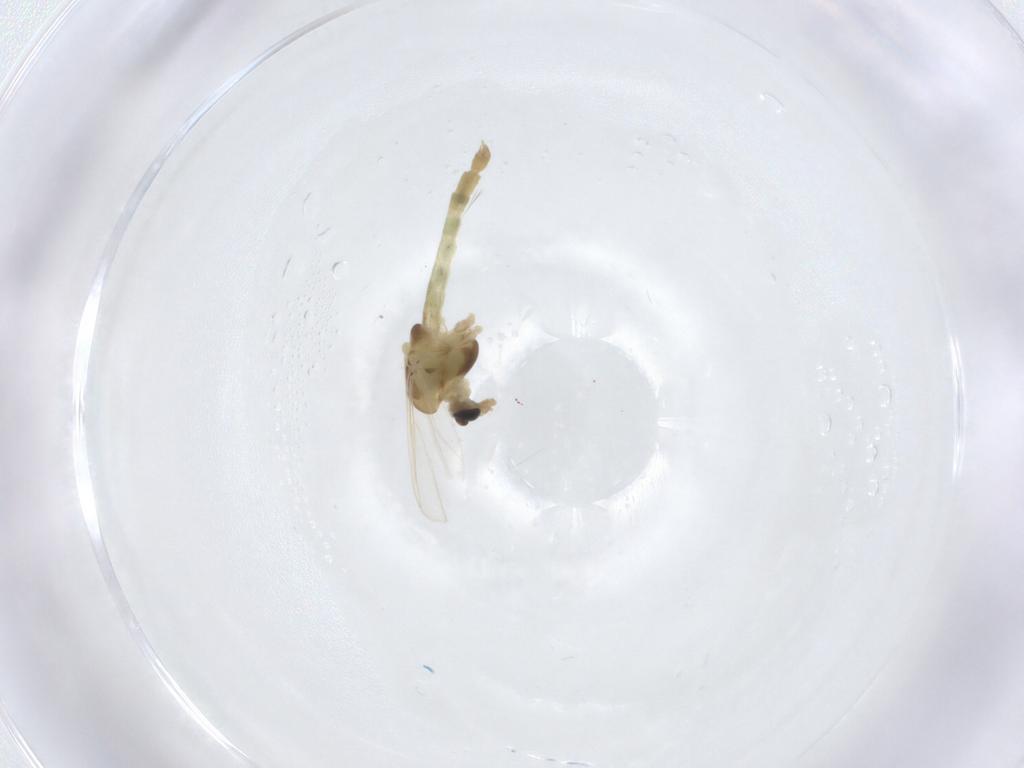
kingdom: Animalia
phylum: Arthropoda
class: Insecta
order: Diptera
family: Chironomidae
